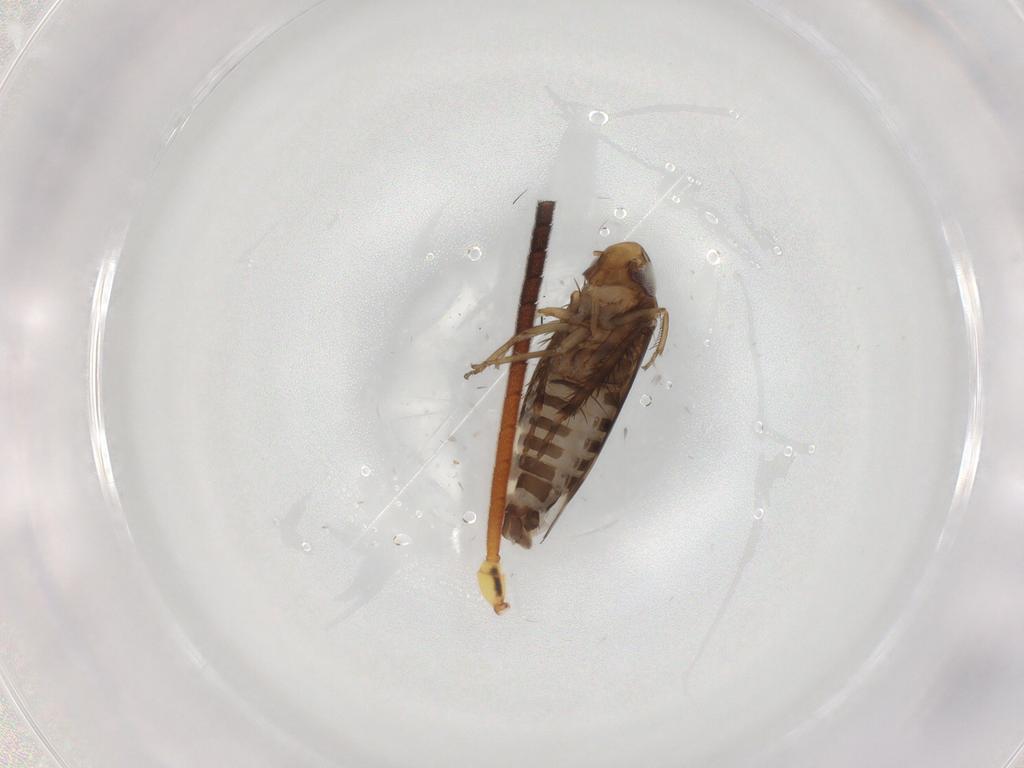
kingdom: Animalia
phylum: Arthropoda
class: Insecta
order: Hemiptera
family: Cicadellidae
